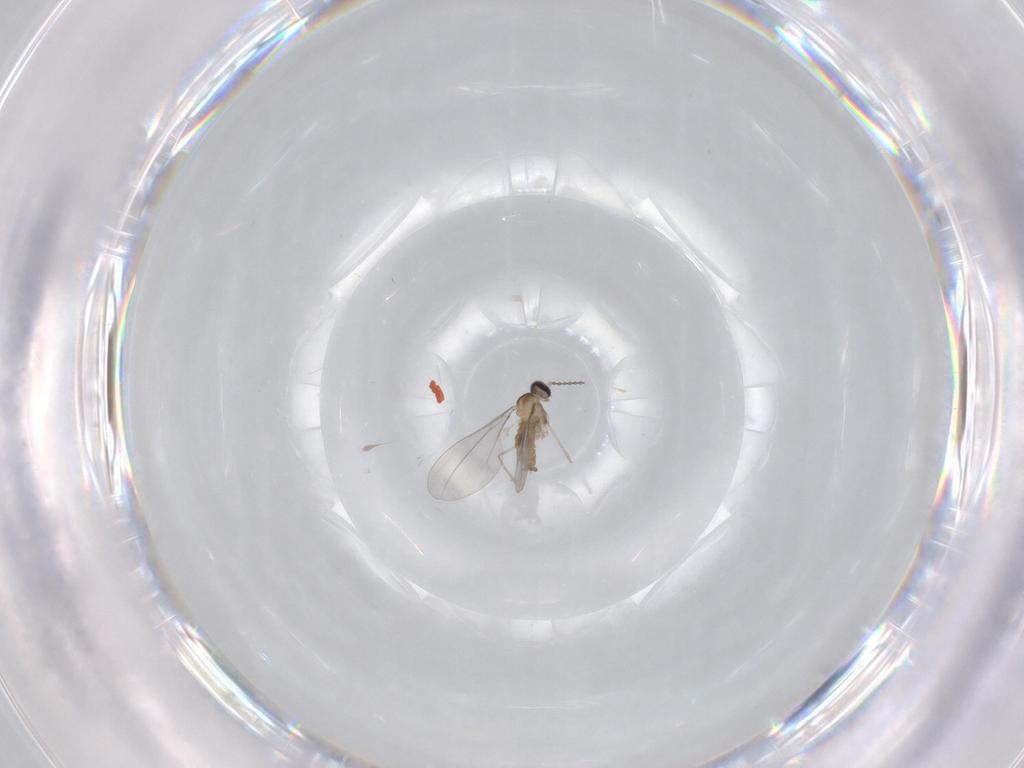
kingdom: Animalia
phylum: Arthropoda
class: Insecta
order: Diptera
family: Cecidomyiidae
